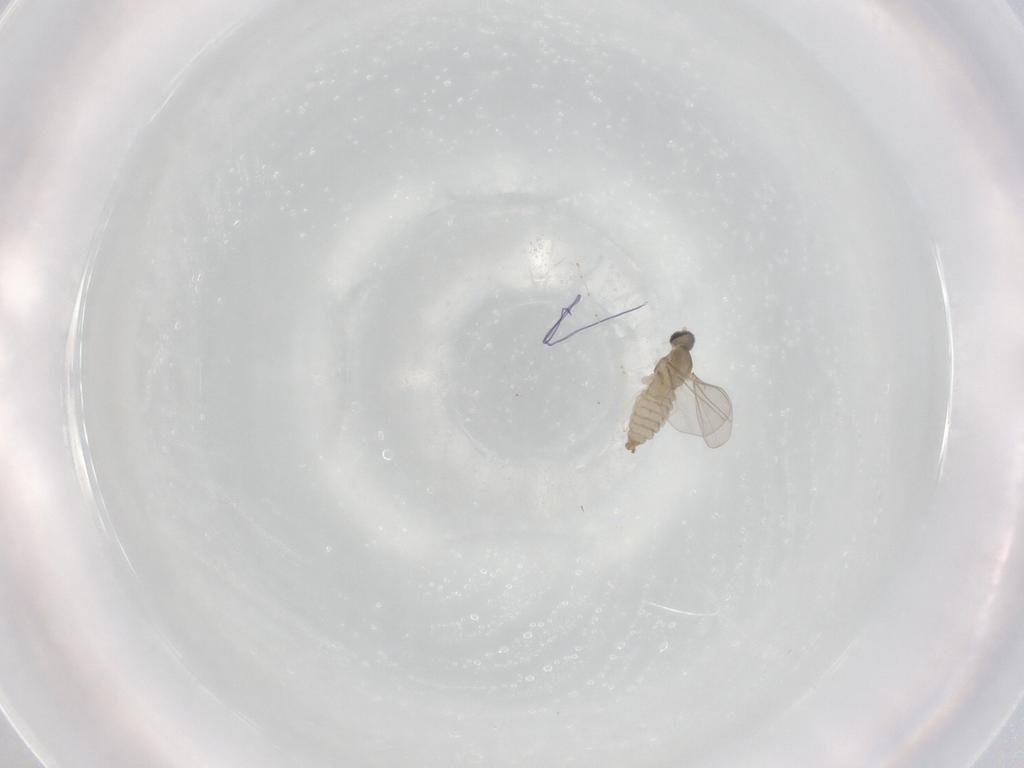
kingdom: Animalia
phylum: Arthropoda
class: Insecta
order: Diptera
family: Cecidomyiidae
